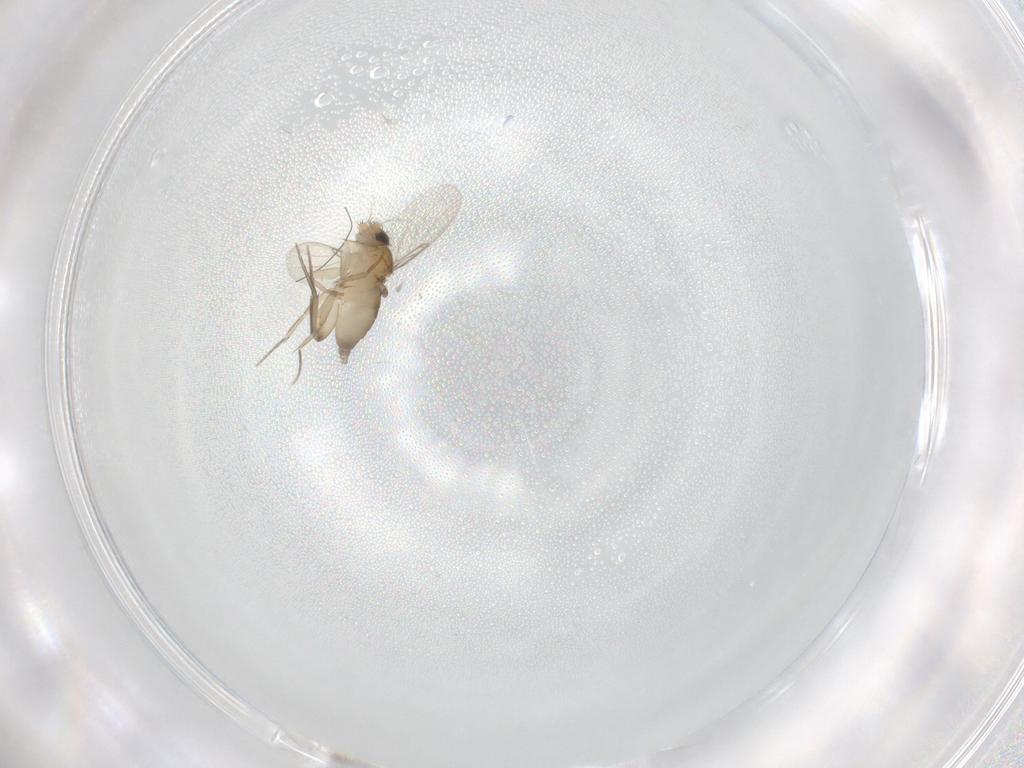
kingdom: Animalia
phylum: Arthropoda
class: Insecta
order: Diptera
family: Phoridae
